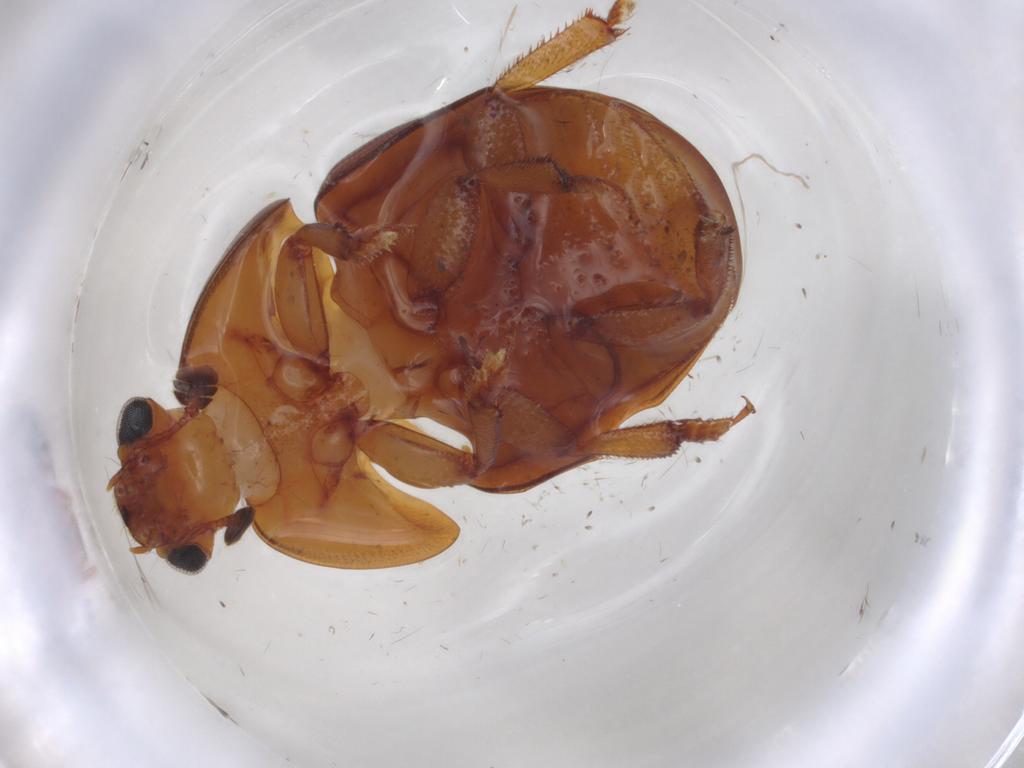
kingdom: Animalia
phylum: Arthropoda
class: Insecta
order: Coleoptera
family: Nitidulidae
